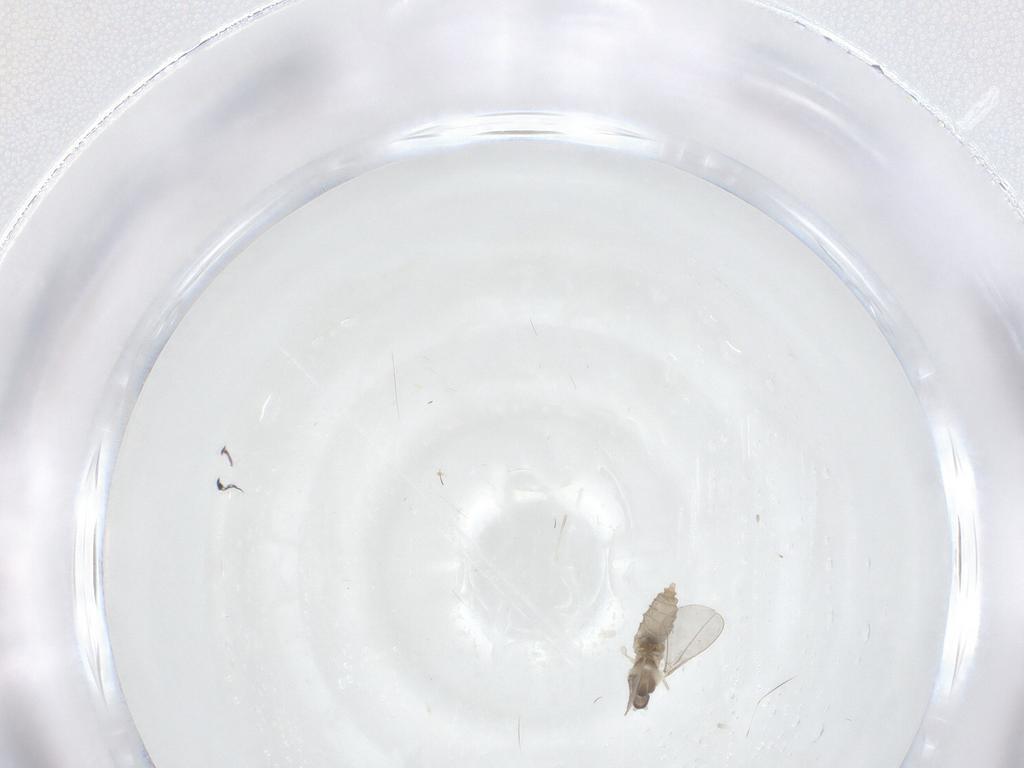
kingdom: Animalia
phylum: Arthropoda
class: Insecta
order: Diptera
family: Cecidomyiidae
